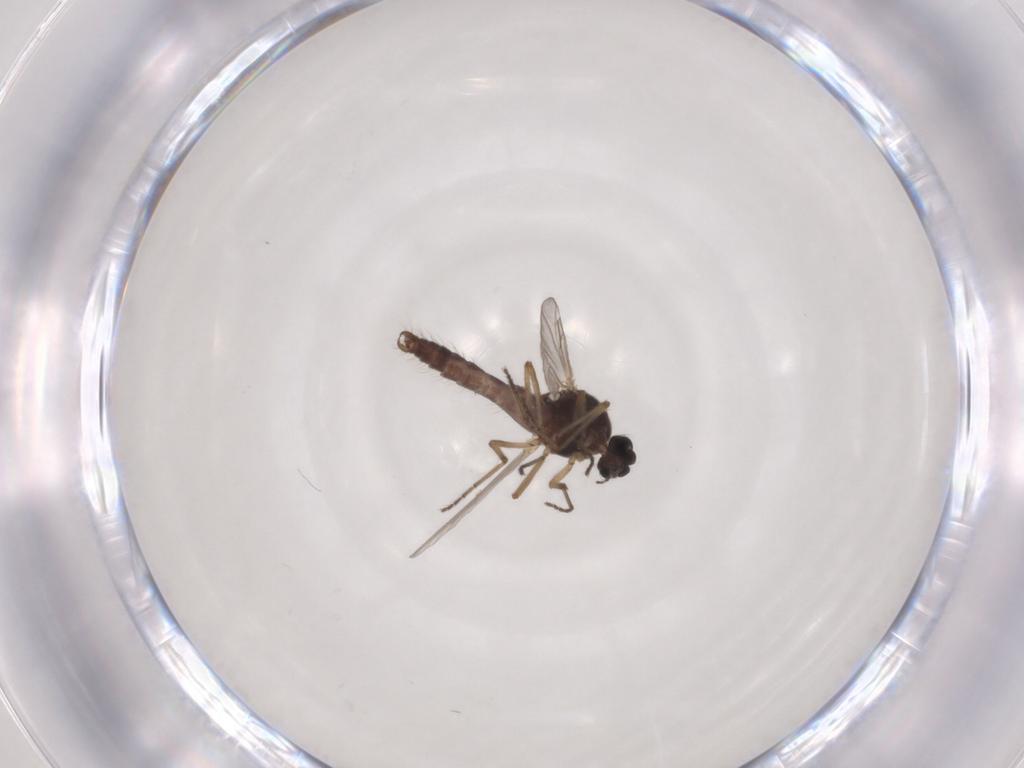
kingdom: Animalia
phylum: Arthropoda
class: Insecta
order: Diptera
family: Ceratopogonidae
